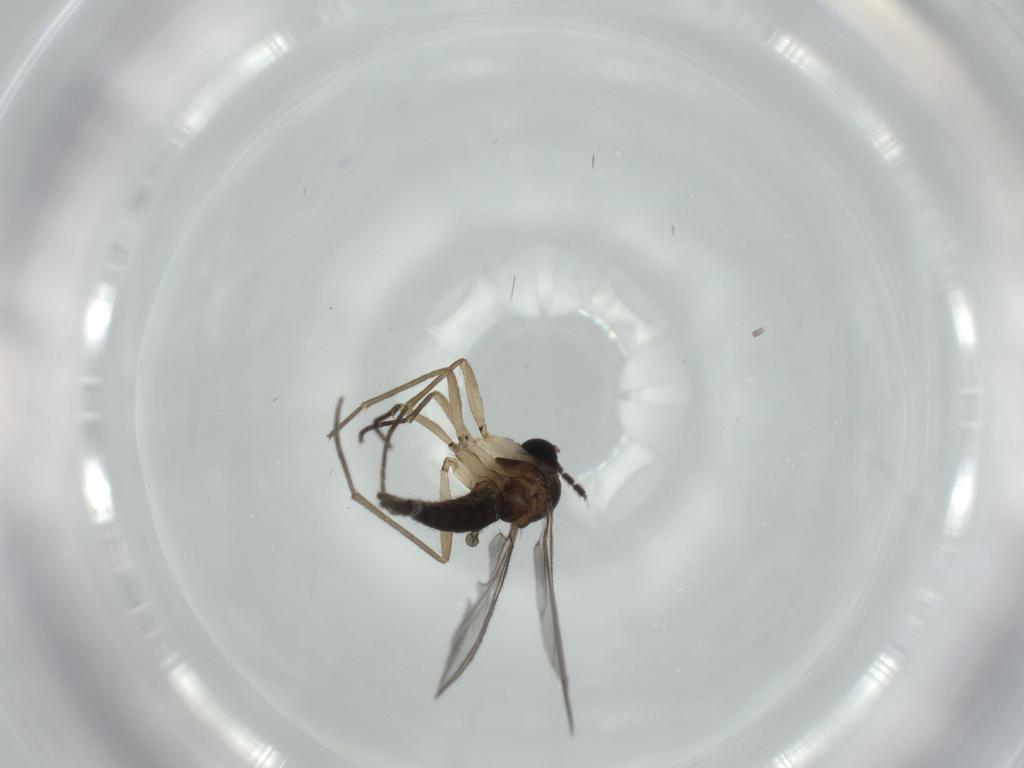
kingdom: Animalia
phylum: Arthropoda
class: Insecta
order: Diptera
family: Sciaridae
